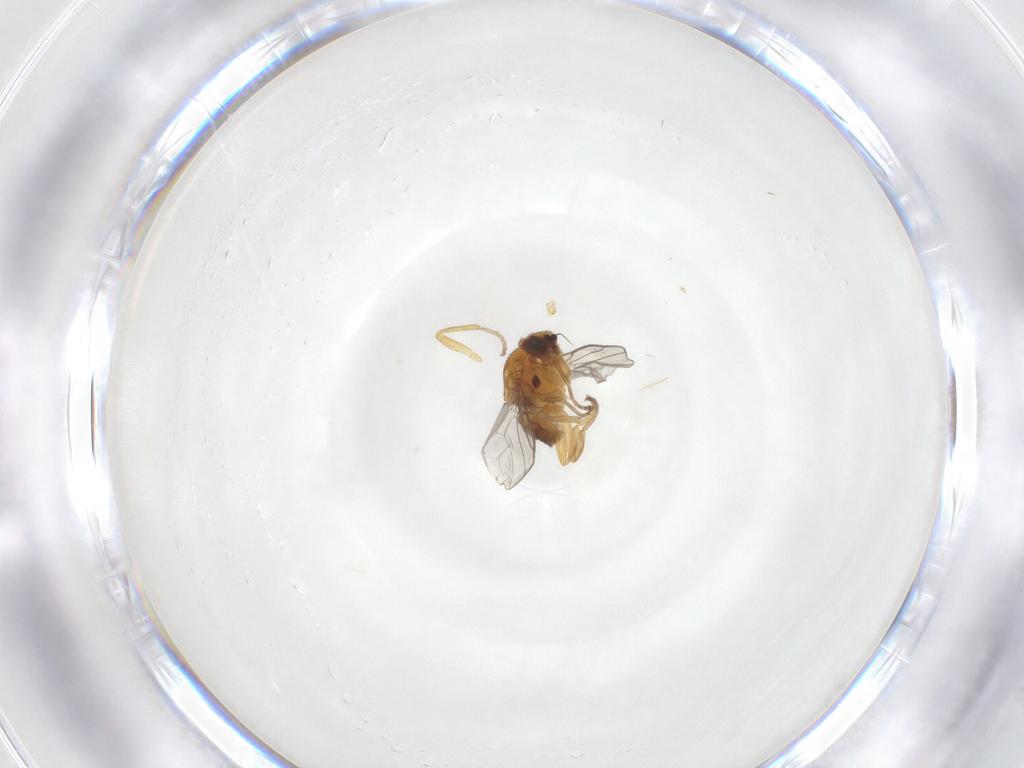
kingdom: Animalia
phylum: Arthropoda
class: Insecta
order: Diptera
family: Chloropidae
